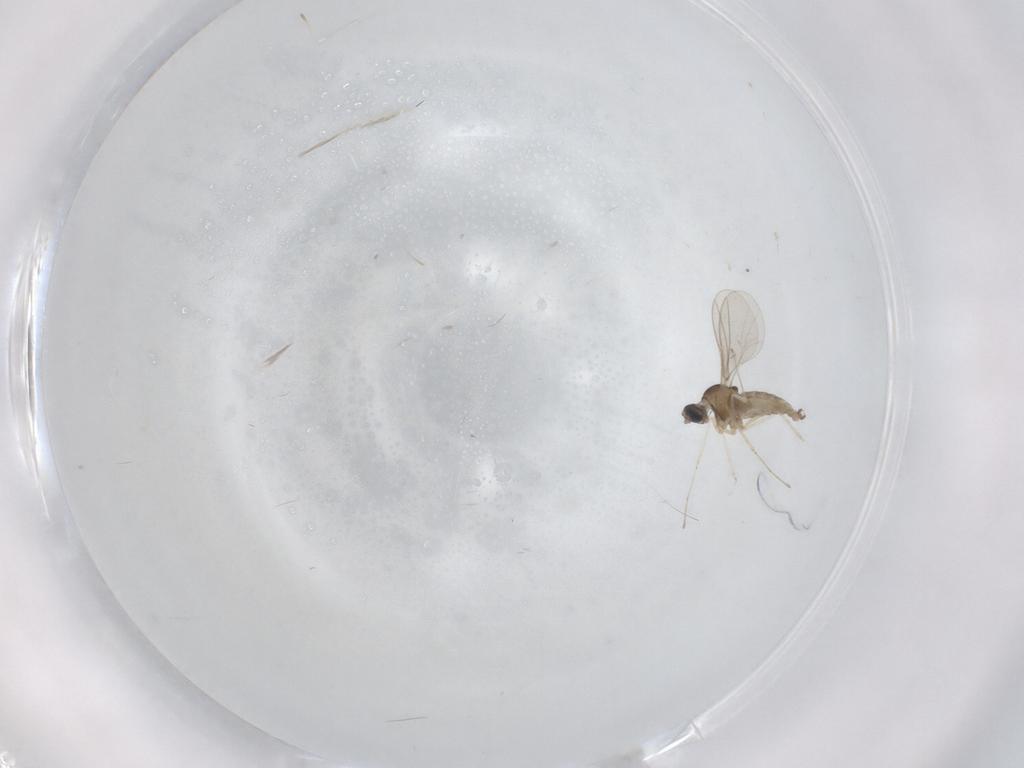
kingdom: Animalia
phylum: Arthropoda
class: Insecta
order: Diptera
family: Cecidomyiidae
